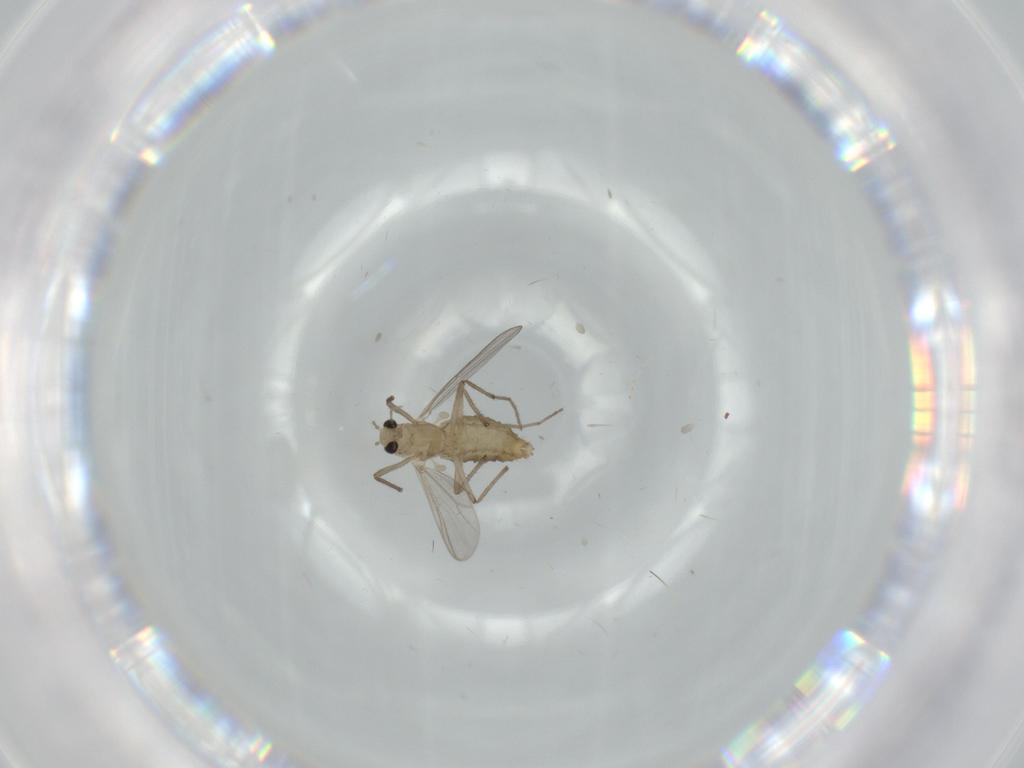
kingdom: Animalia
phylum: Arthropoda
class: Insecta
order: Diptera
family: Chironomidae
